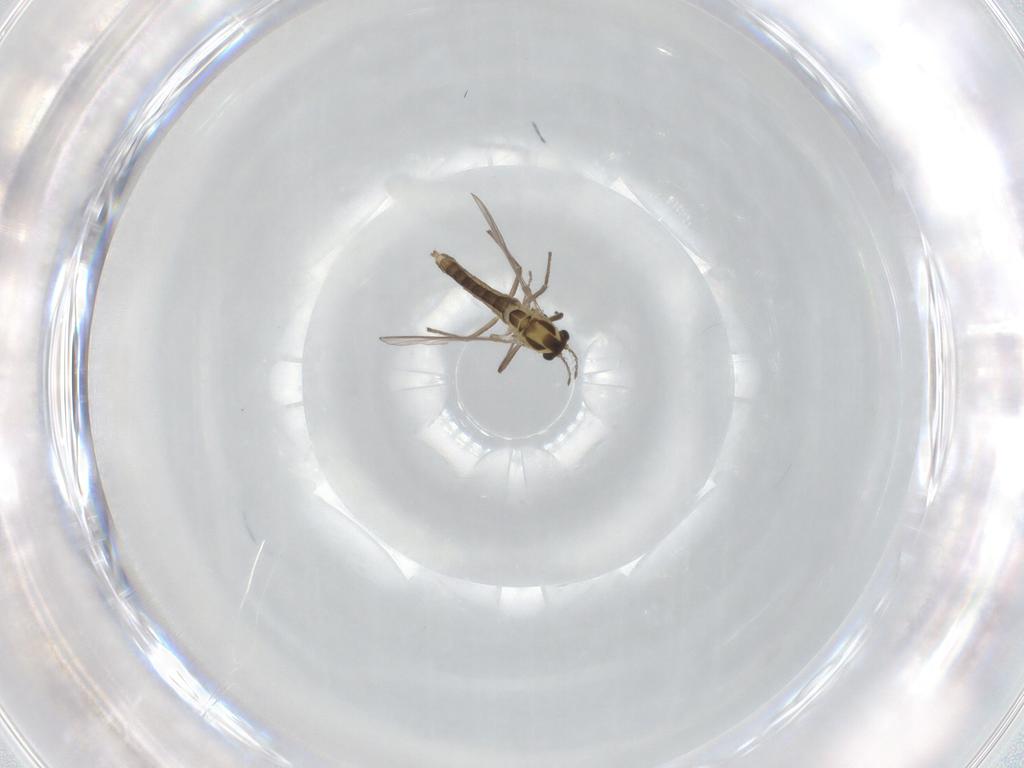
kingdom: Animalia
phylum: Arthropoda
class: Insecta
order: Diptera
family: Chironomidae
